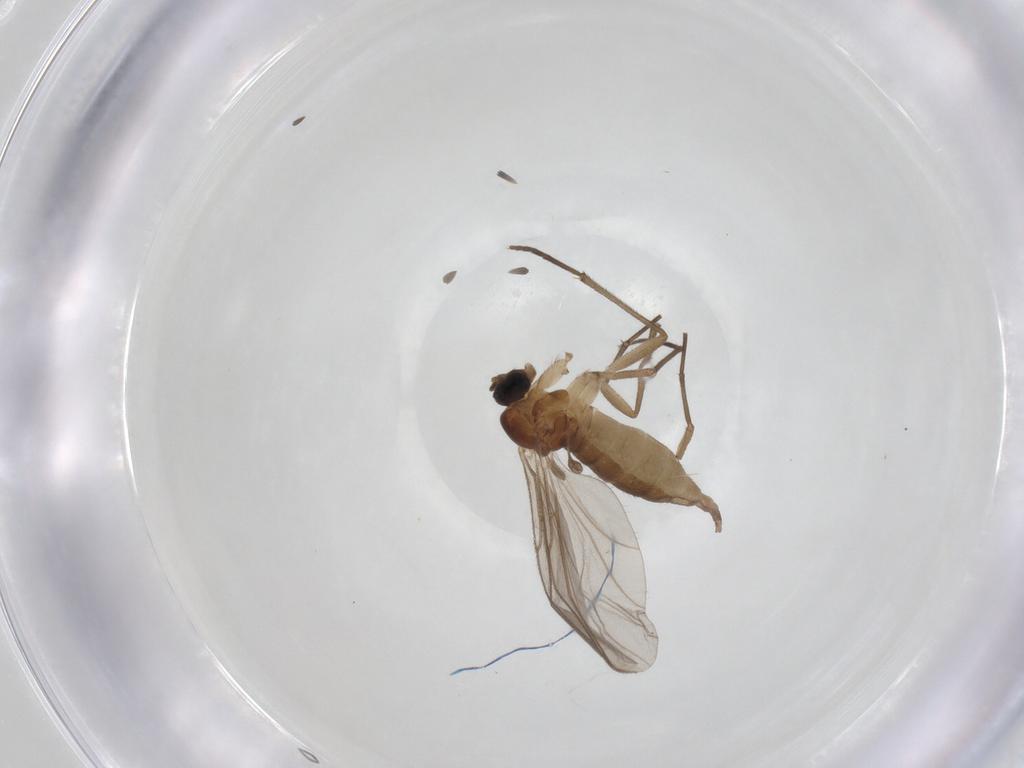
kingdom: Animalia
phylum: Arthropoda
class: Insecta
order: Diptera
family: Sciaridae
